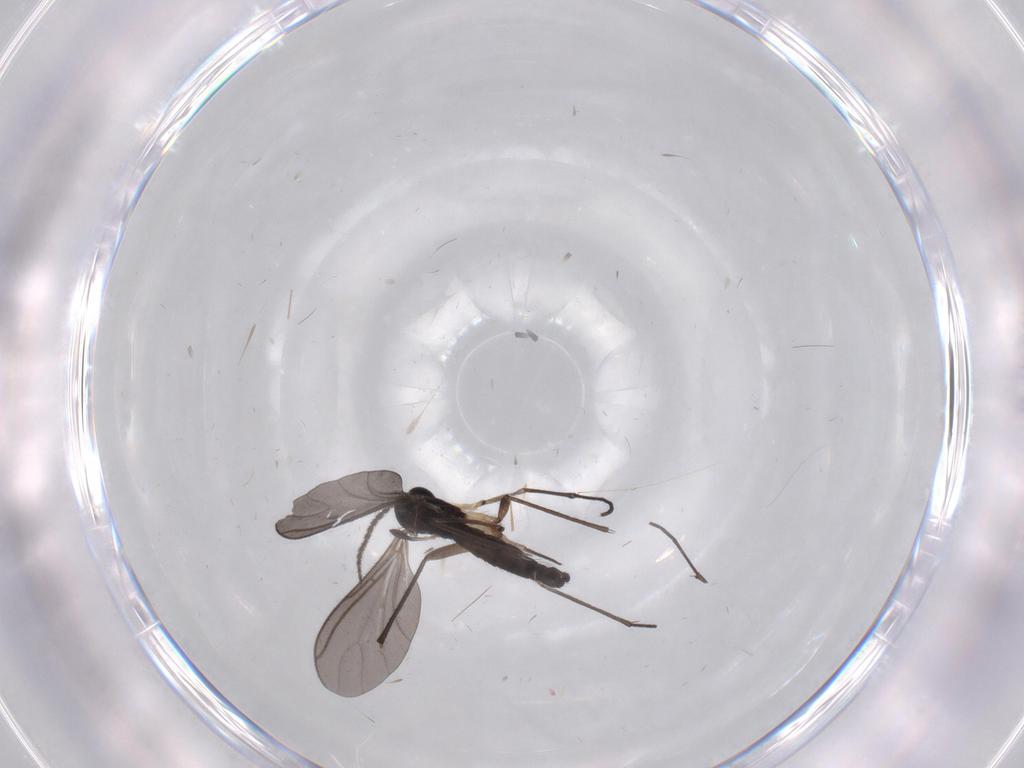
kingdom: Animalia
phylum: Arthropoda
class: Insecta
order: Diptera
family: Sciaridae
